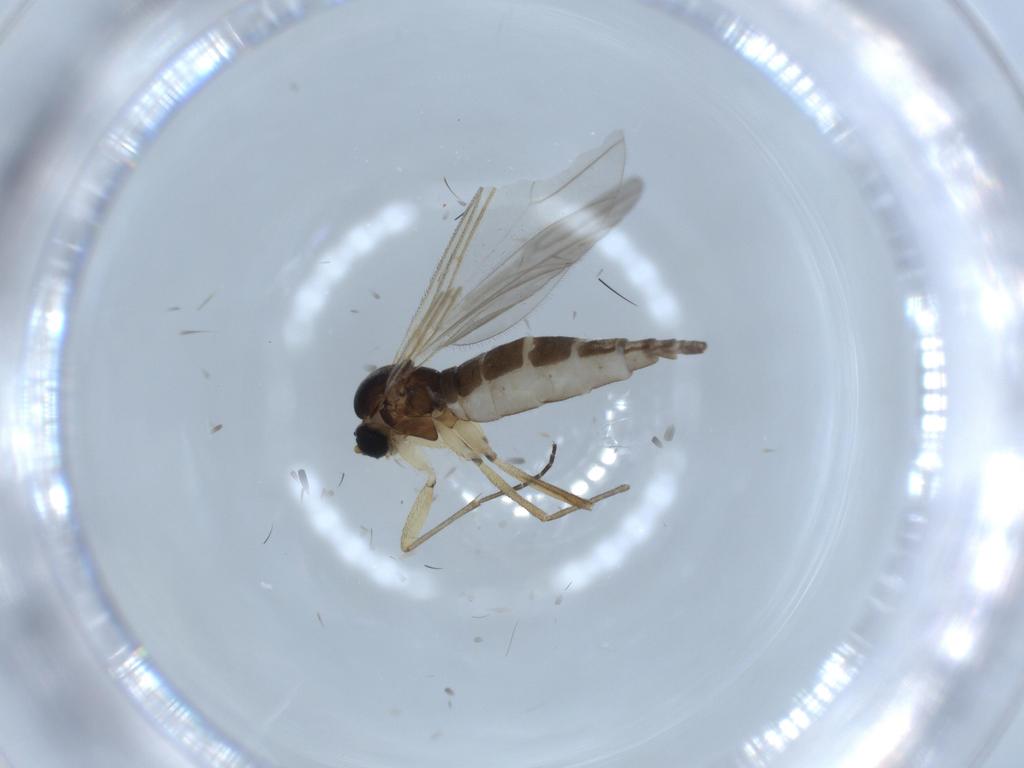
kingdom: Animalia
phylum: Arthropoda
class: Insecta
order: Diptera
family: Sciaridae
